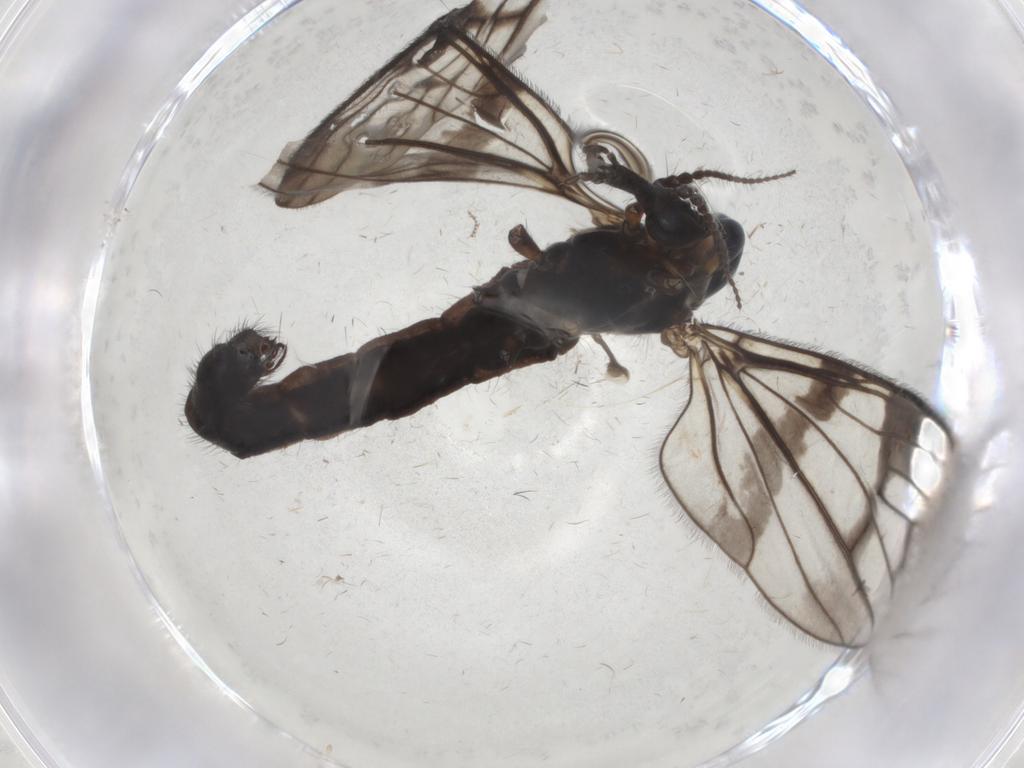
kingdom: Animalia
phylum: Arthropoda
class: Insecta
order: Diptera
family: Limoniidae
